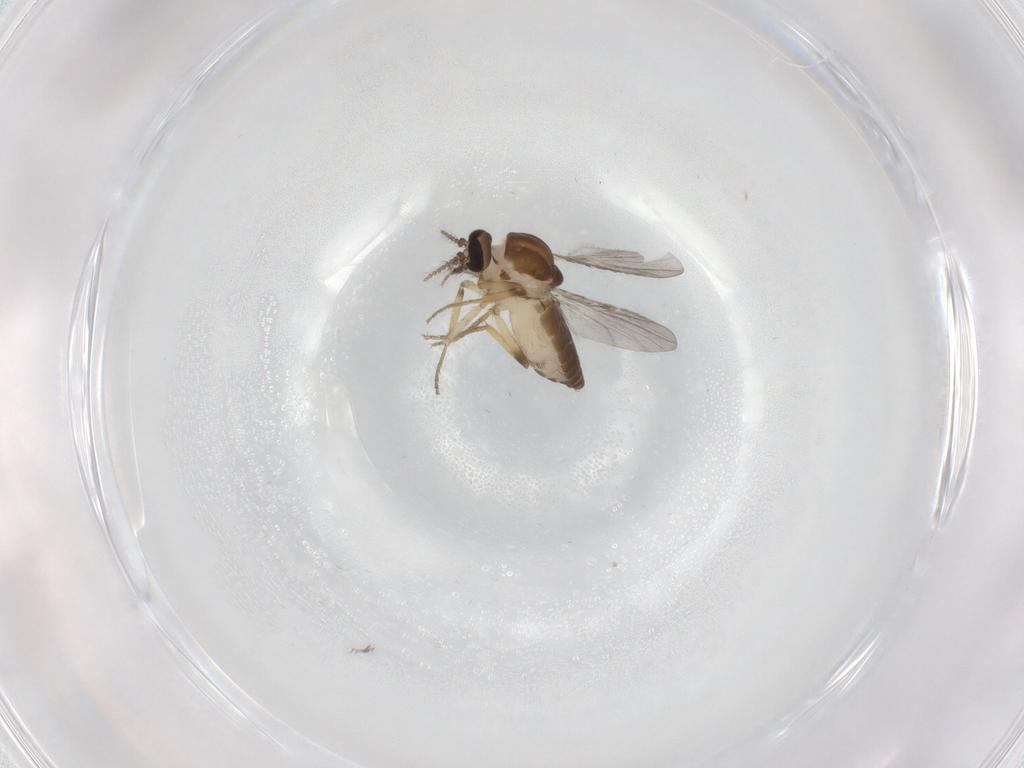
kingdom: Animalia
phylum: Arthropoda
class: Insecta
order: Diptera
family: Ceratopogonidae
